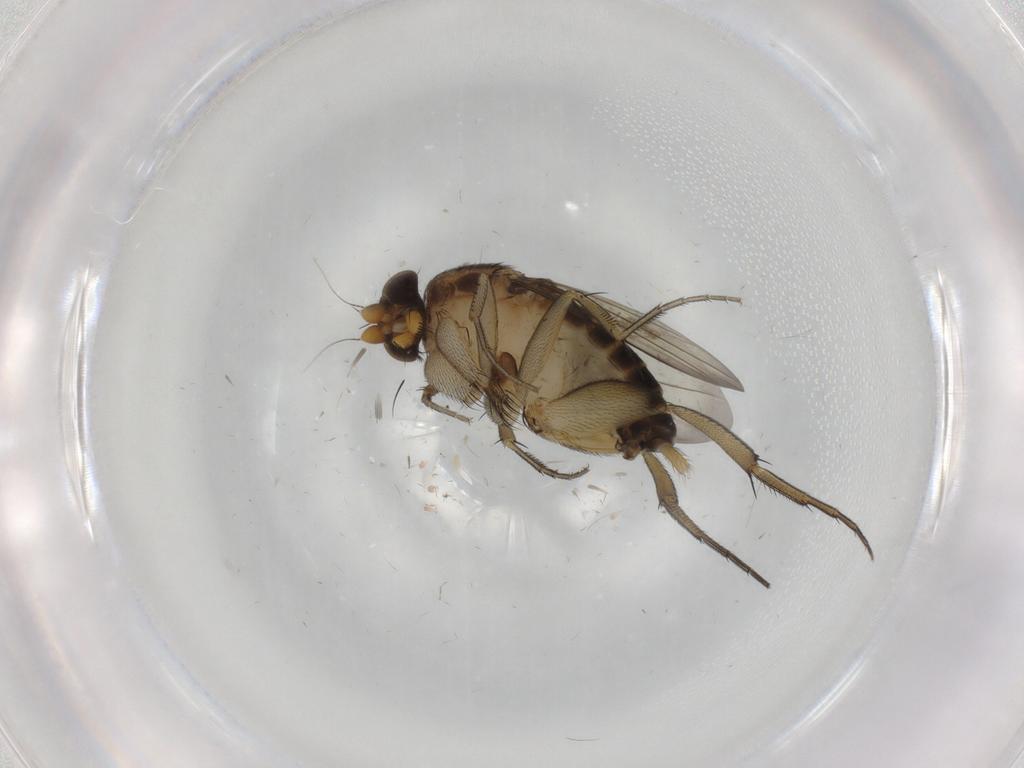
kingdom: Animalia
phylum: Arthropoda
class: Insecta
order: Diptera
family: Phoridae
